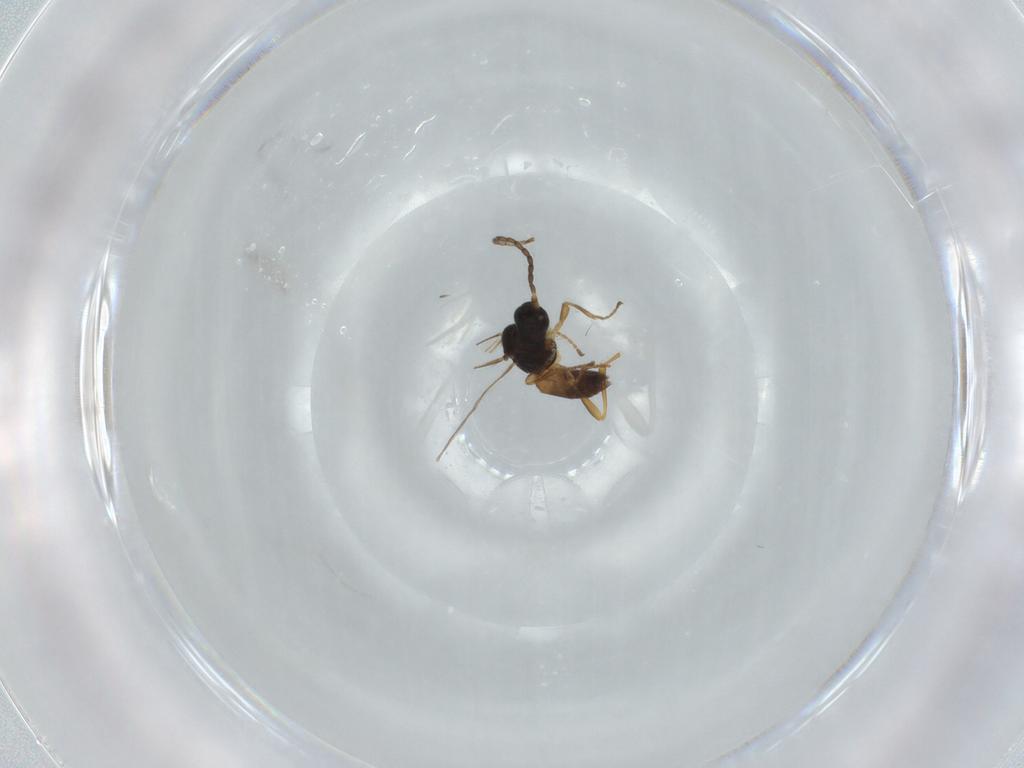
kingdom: Animalia
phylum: Arthropoda
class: Insecta
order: Hymenoptera
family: Braconidae
